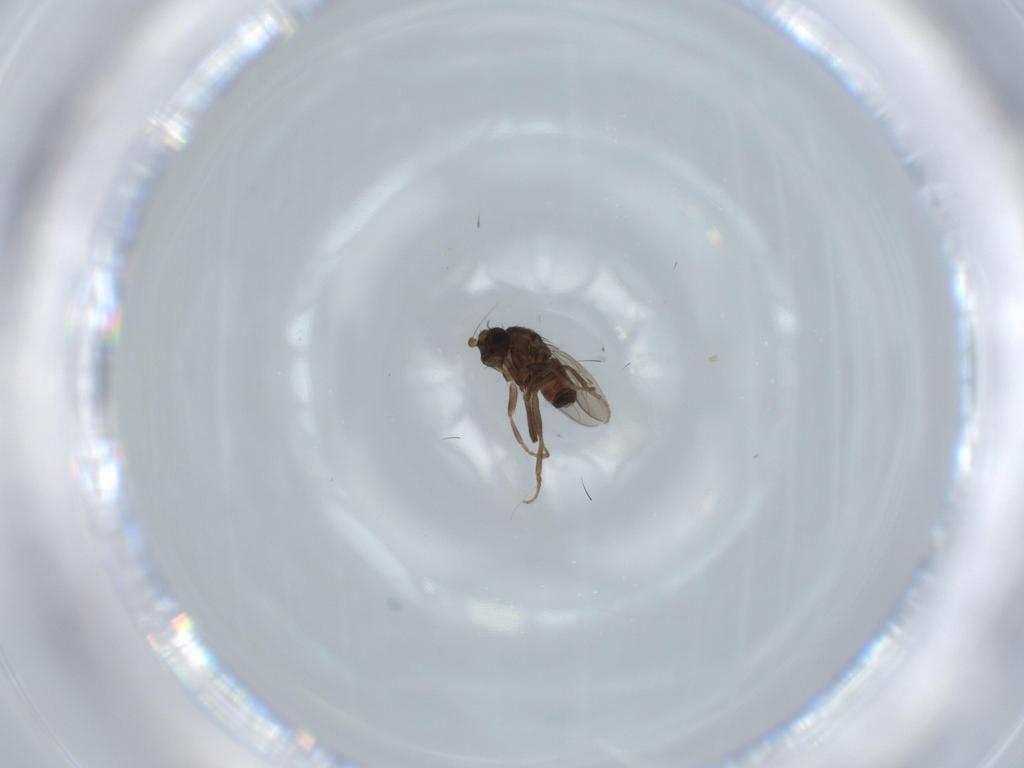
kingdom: Animalia
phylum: Arthropoda
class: Insecta
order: Diptera
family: Sphaeroceridae
